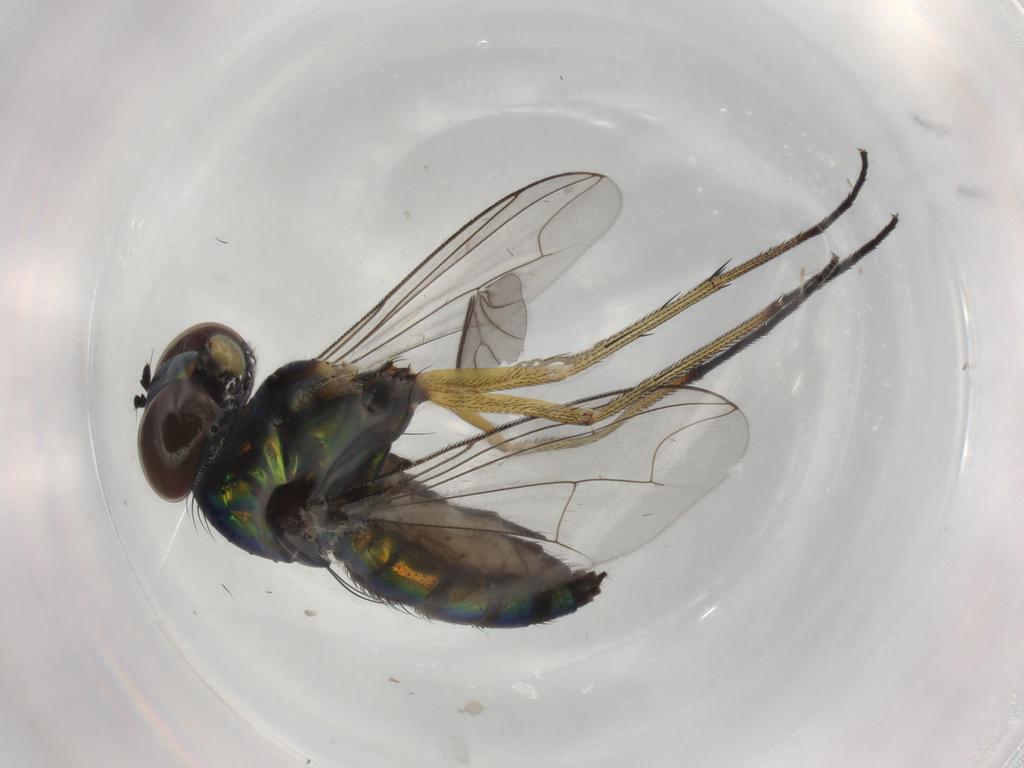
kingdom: Animalia
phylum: Arthropoda
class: Insecta
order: Diptera
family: Dolichopodidae
